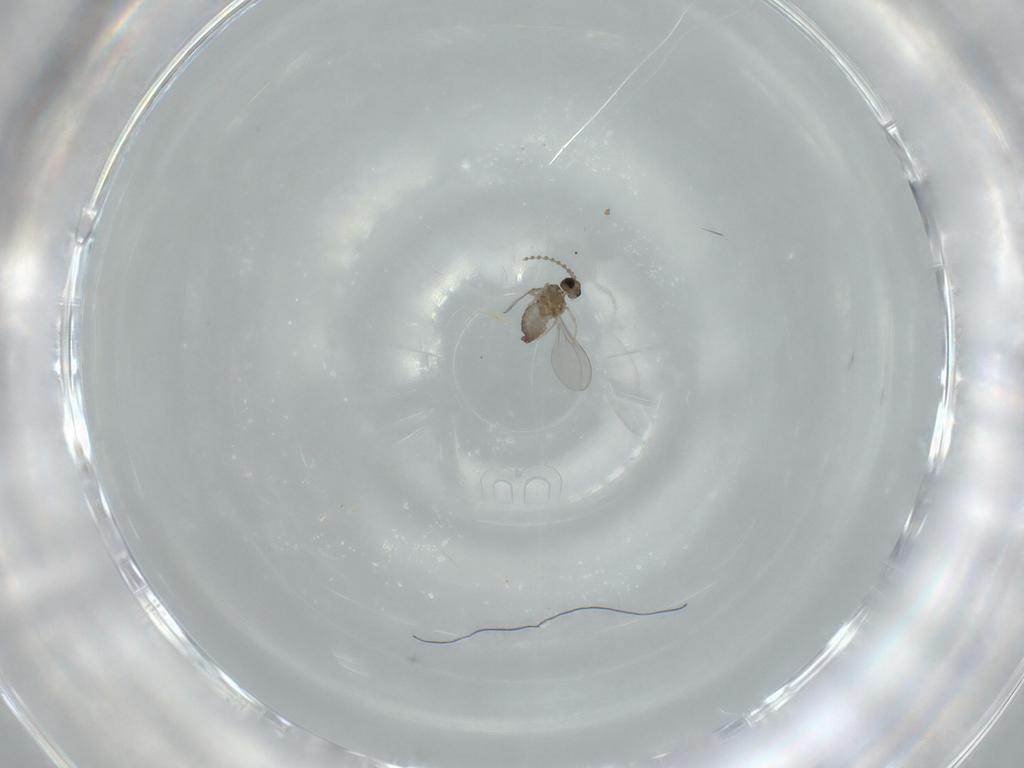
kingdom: Animalia
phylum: Arthropoda
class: Insecta
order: Diptera
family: Cecidomyiidae
